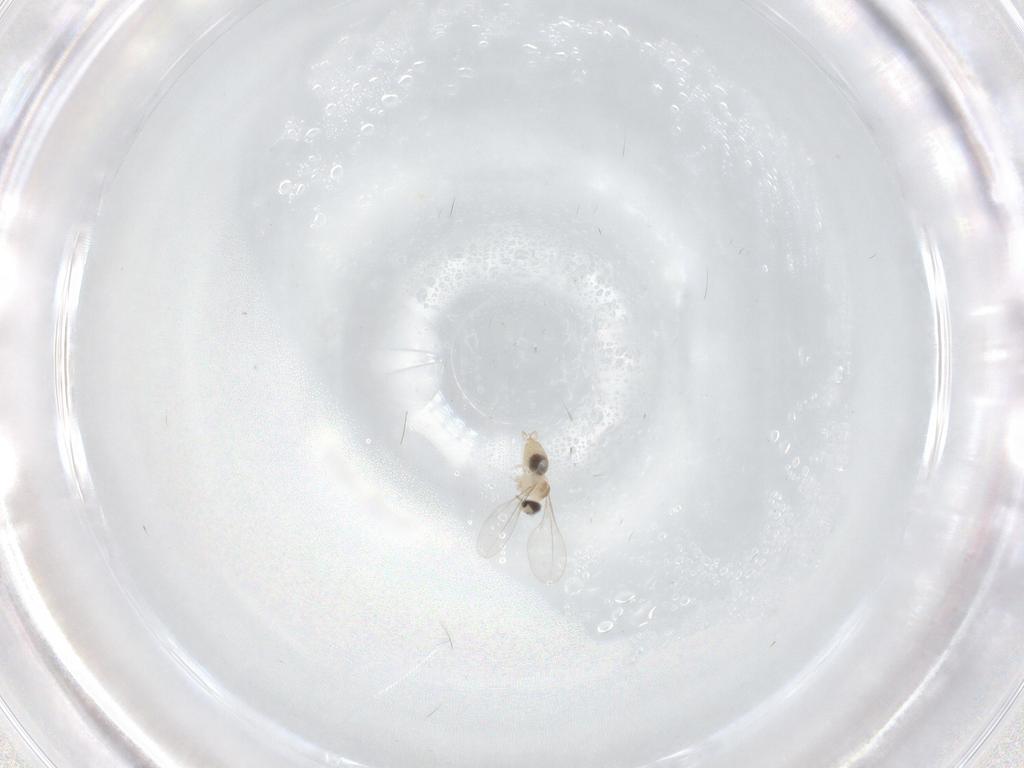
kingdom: Animalia
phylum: Arthropoda
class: Insecta
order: Diptera
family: Cecidomyiidae
